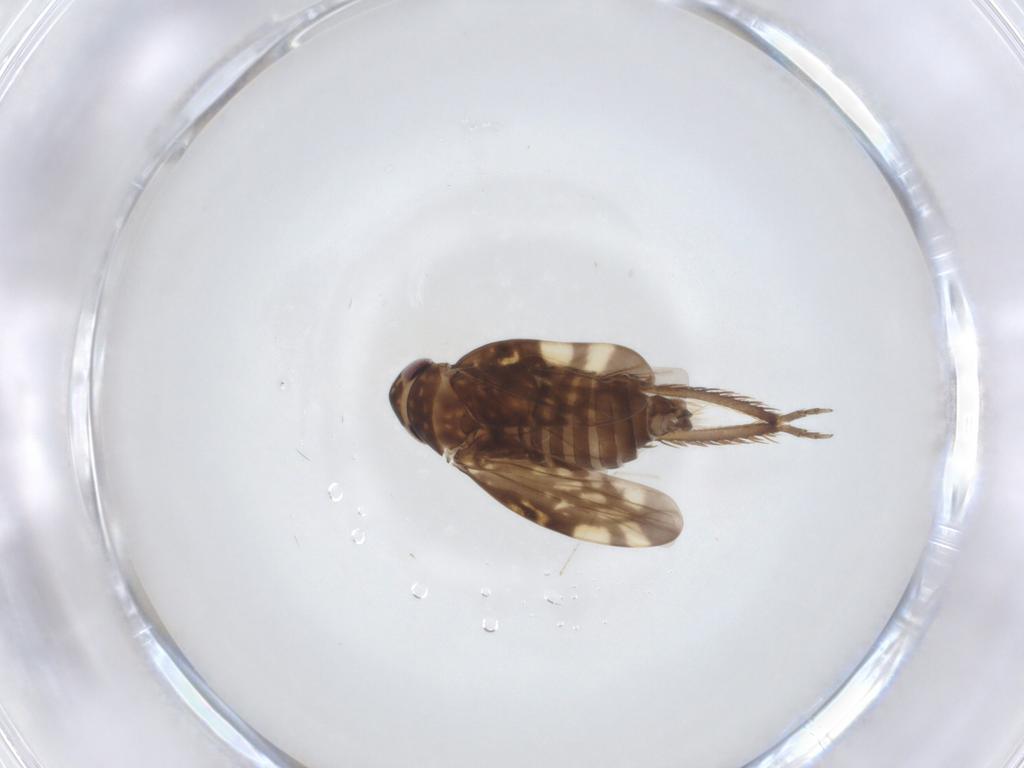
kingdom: Animalia
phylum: Arthropoda
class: Insecta
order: Hemiptera
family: Cicadellidae
